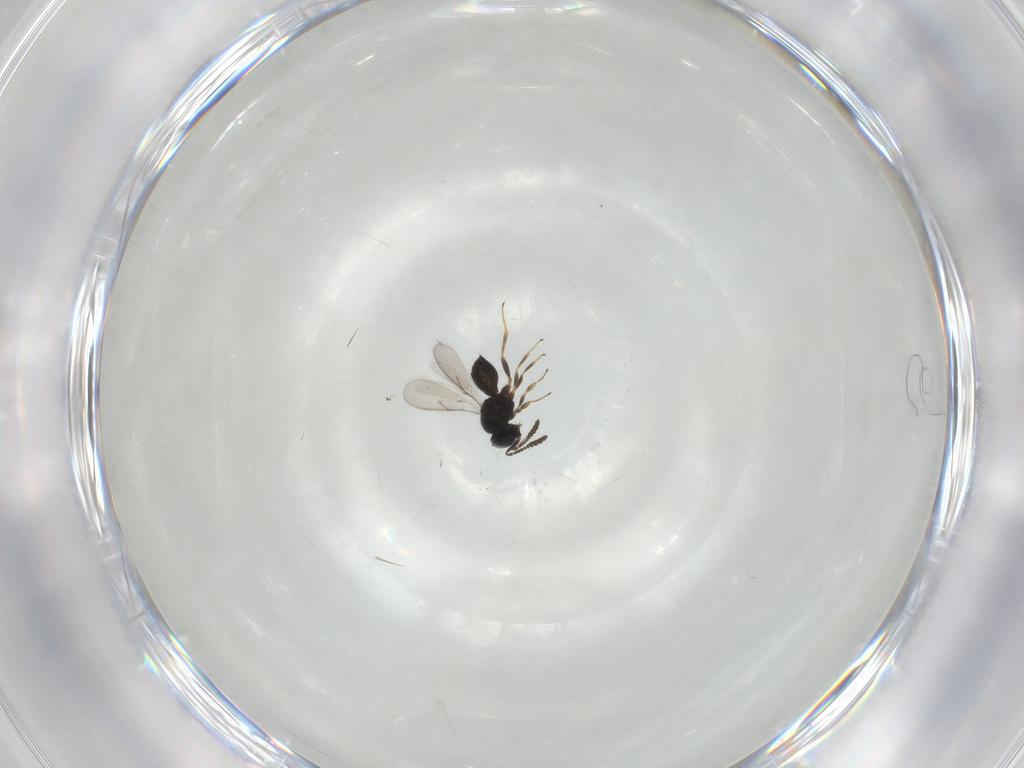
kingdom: Animalia
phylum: Arthropoda
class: Insecta
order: Hymenoptera
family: Scelionidae
